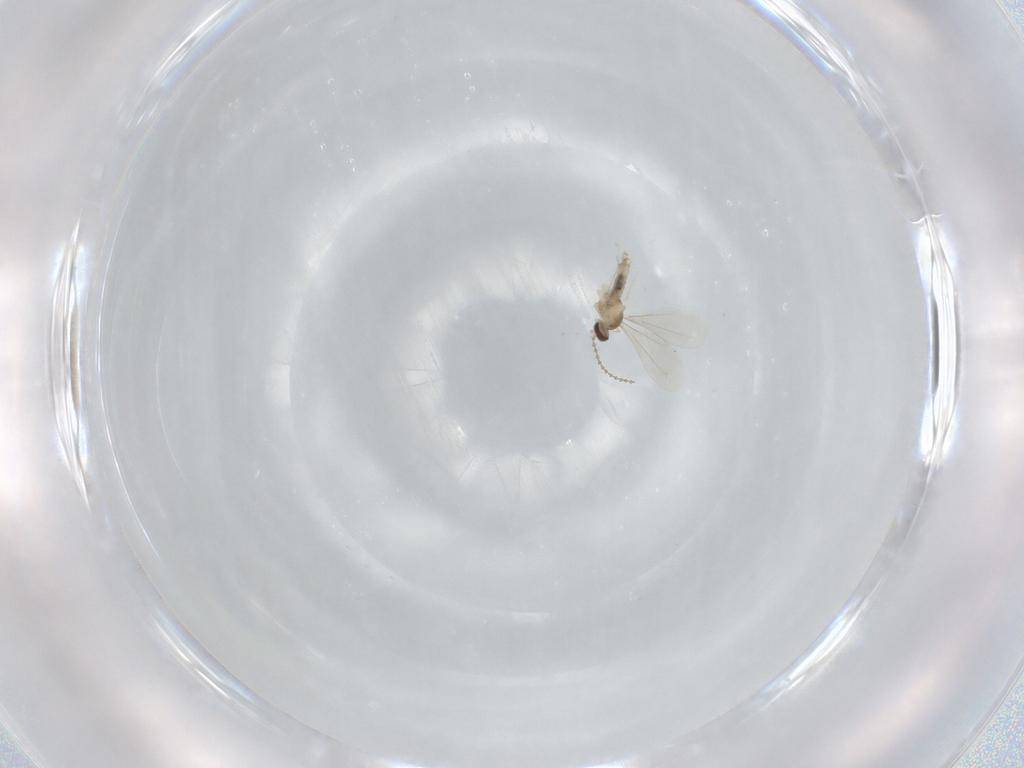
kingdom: Animalia
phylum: Arthropoda
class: Insecta
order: Diptera
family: Cecidomyiidae
